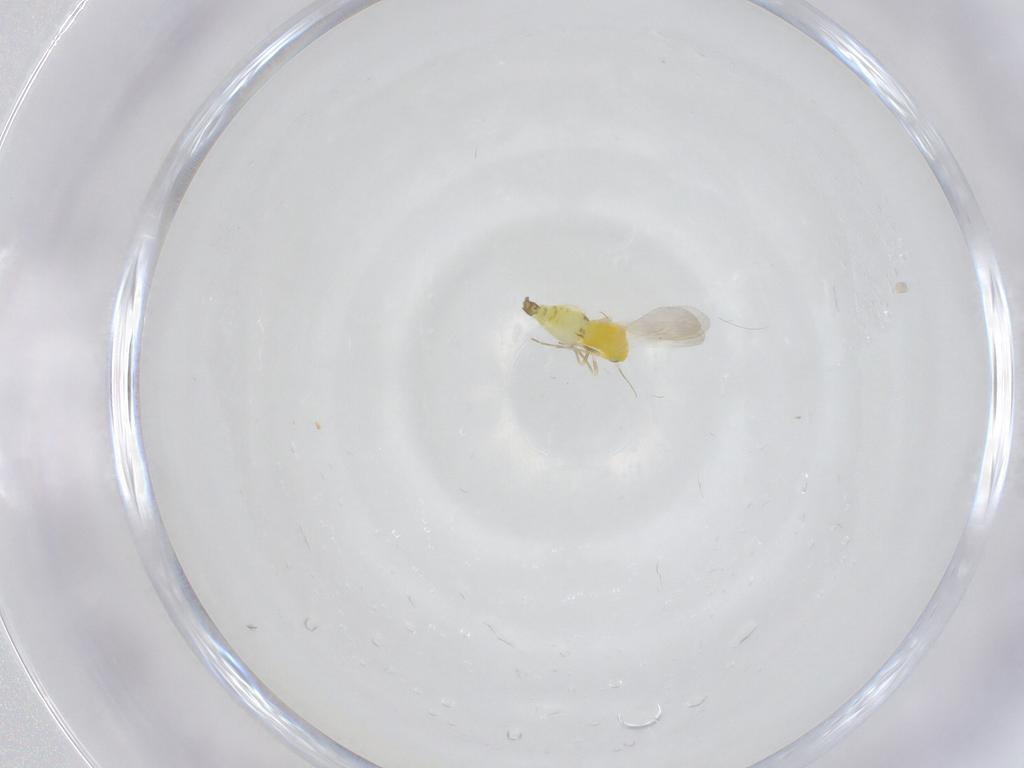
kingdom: Animalia
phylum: Arthropoda
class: Insecta
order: Hemiptera
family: Aleyrodidae
